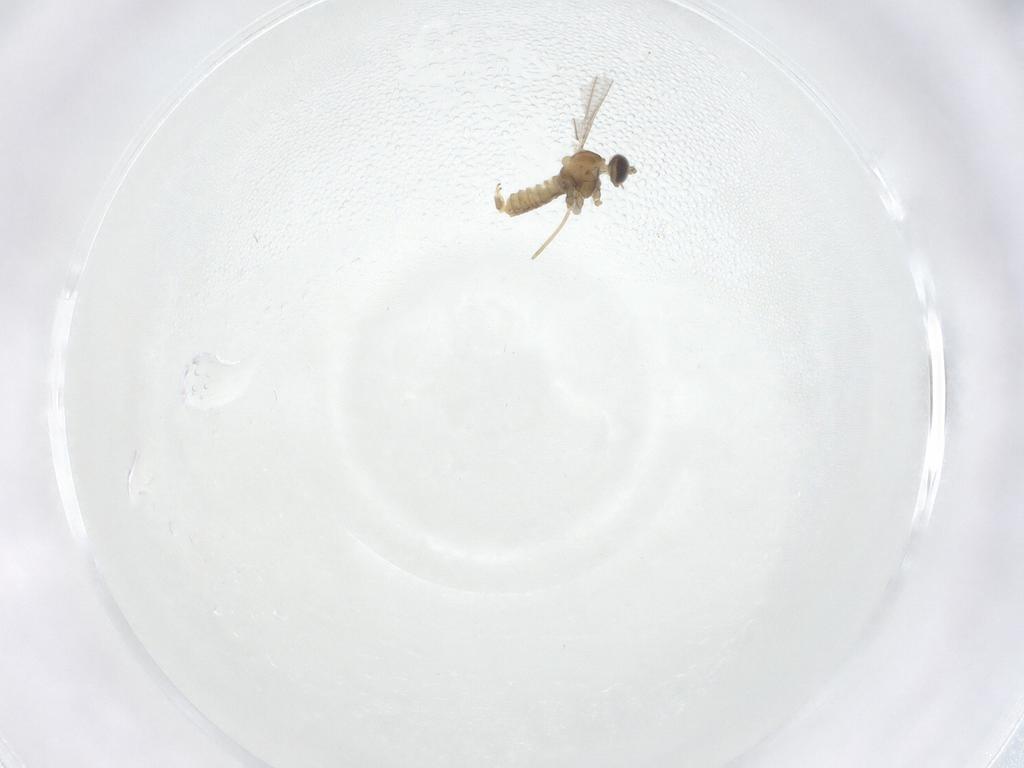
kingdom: Animalia
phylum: Arthropoda
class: Insecta
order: Diptera
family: Cecidomyiidae
